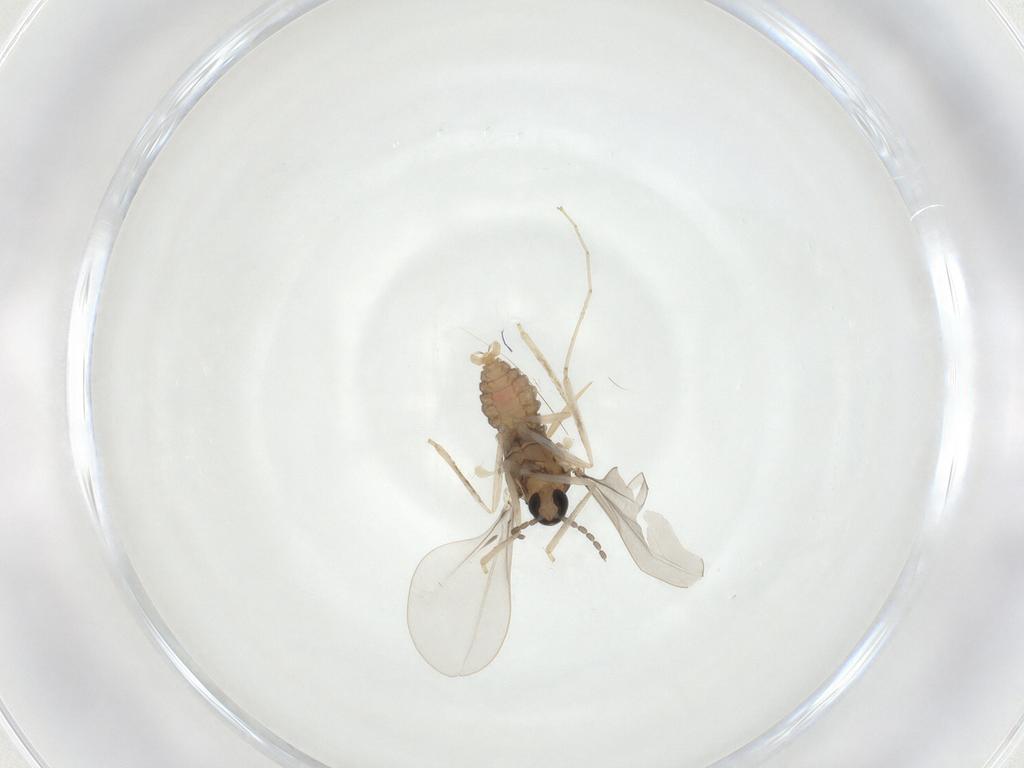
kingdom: Animalia
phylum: Arthropoda
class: Insecta
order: Diptera
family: Cecidomyiidae
